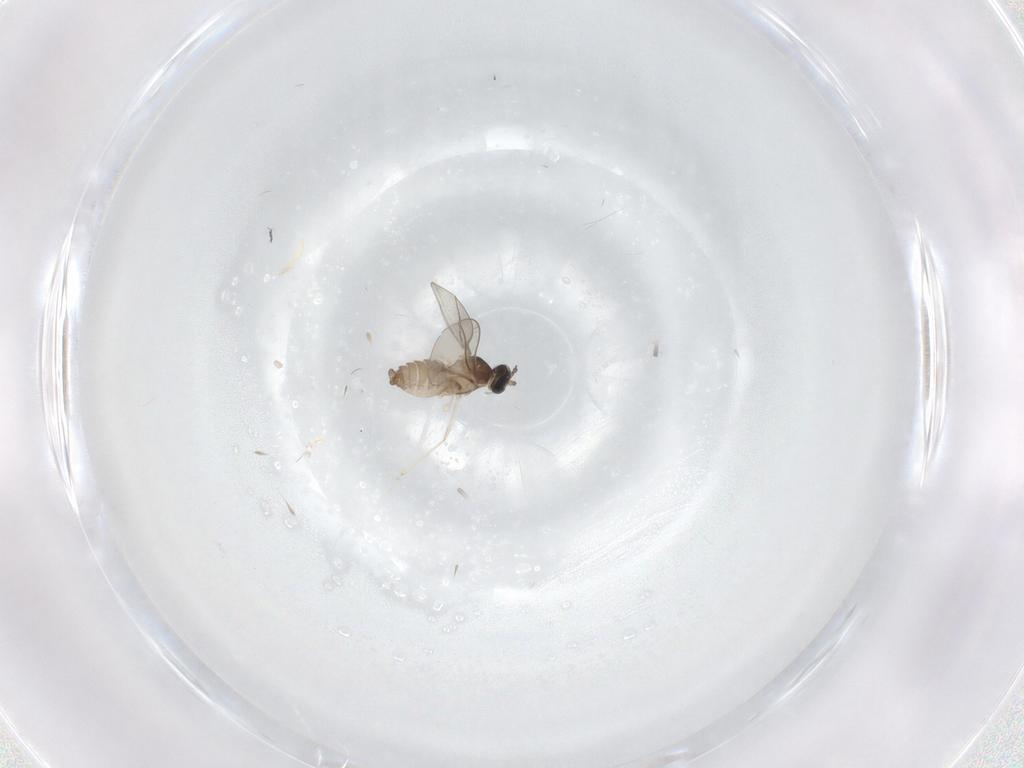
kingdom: Animalia
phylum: Arthropoda
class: Insecta
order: Diptera
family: Cecidomyiidae
